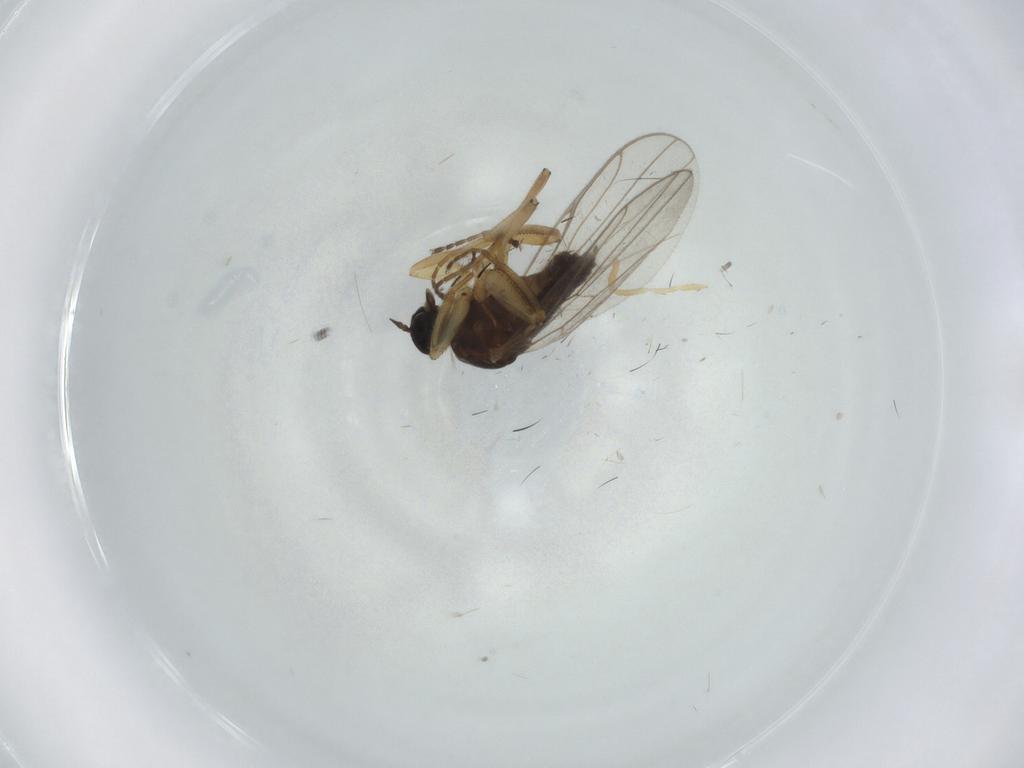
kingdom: Animalia
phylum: Arthropoda
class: Insecta
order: Diptera
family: Hybotidae
